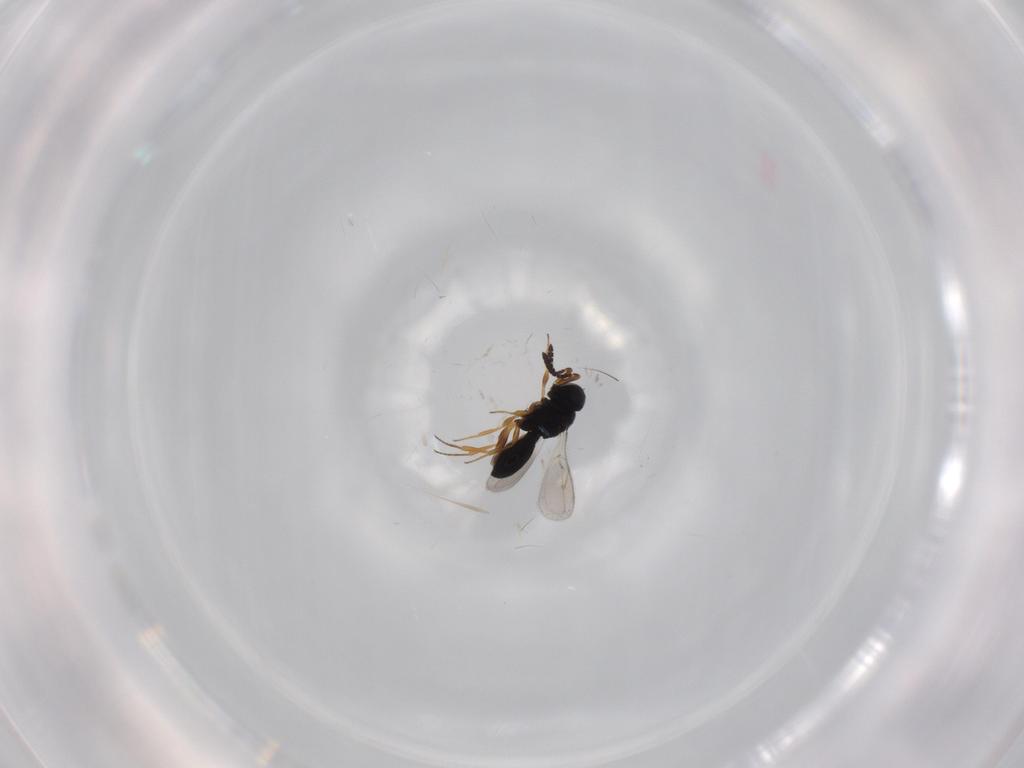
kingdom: Animalia
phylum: Arthropoda
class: Insecta
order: Hymenoptera
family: Scelionidae
